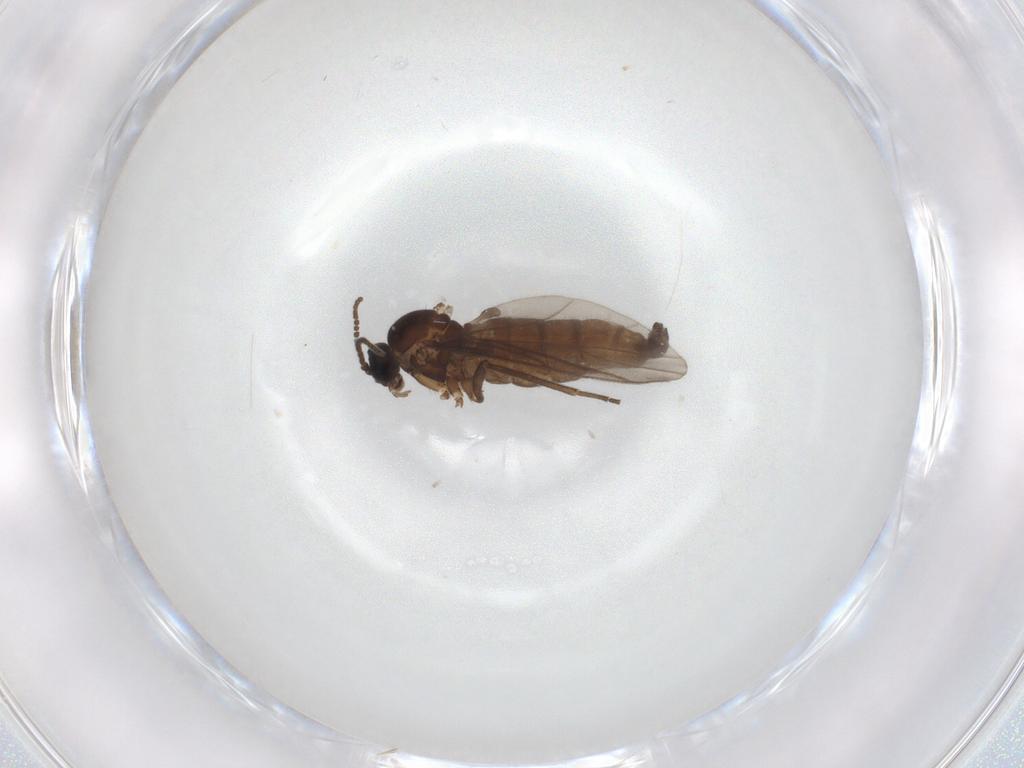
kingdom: Animalia
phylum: Arthropoda
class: Insecta
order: Diptera
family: Sciaridae
